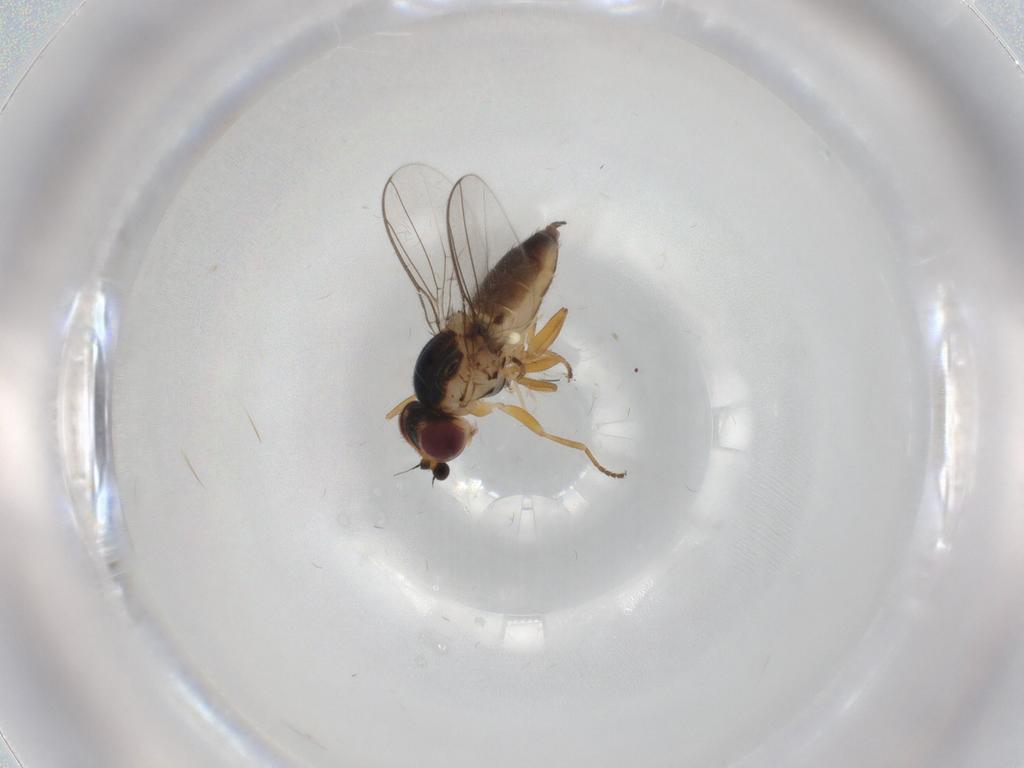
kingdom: Animalia
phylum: Arthropoda
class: Insecta
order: Diptera
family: Chloropidae
